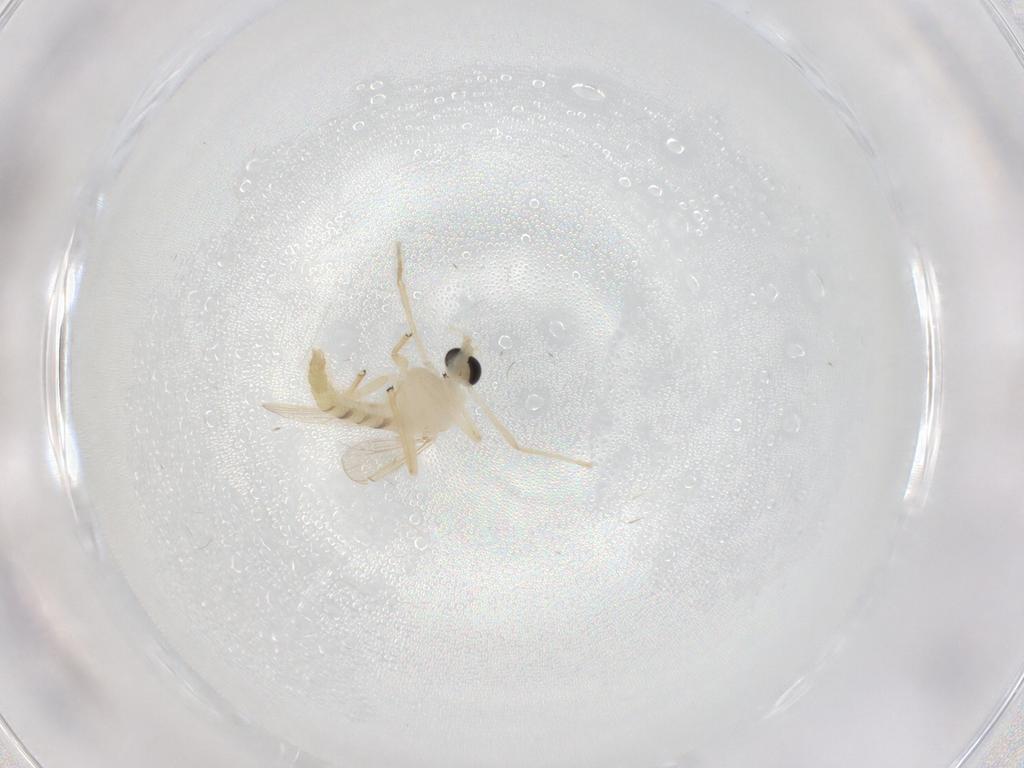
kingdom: Animalia
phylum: Arthropoda
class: Insecta
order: Diptera
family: Chironomidae
